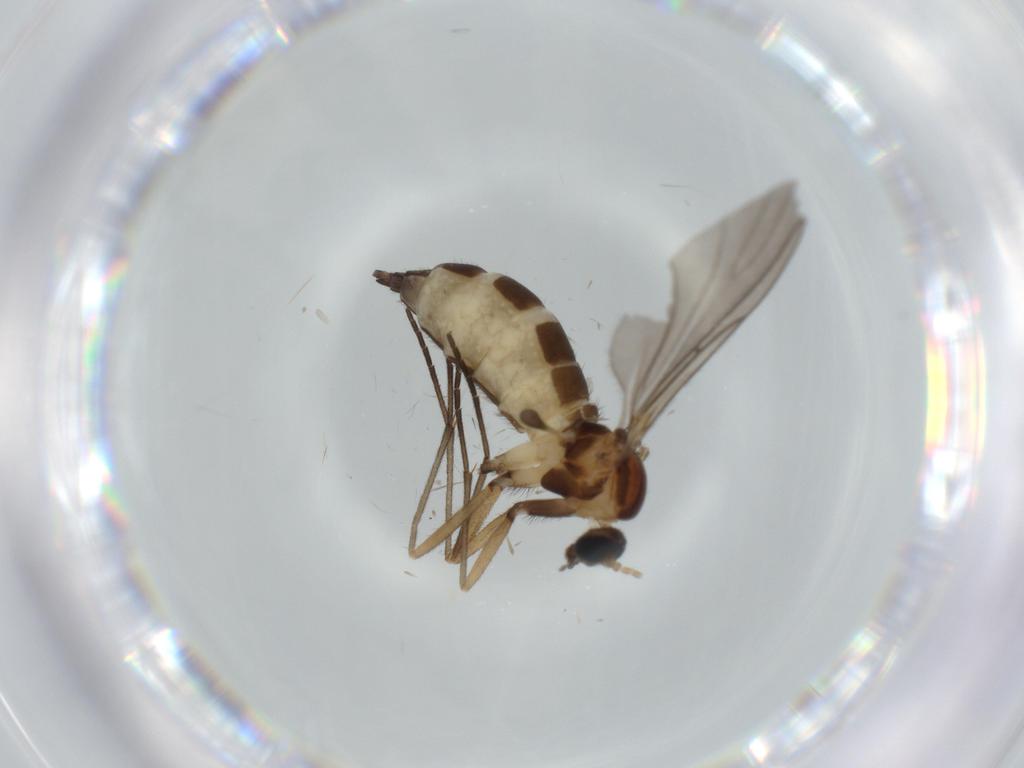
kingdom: Animalia
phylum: Arthropoda
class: Insecta
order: Diptera
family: Sciaridae
